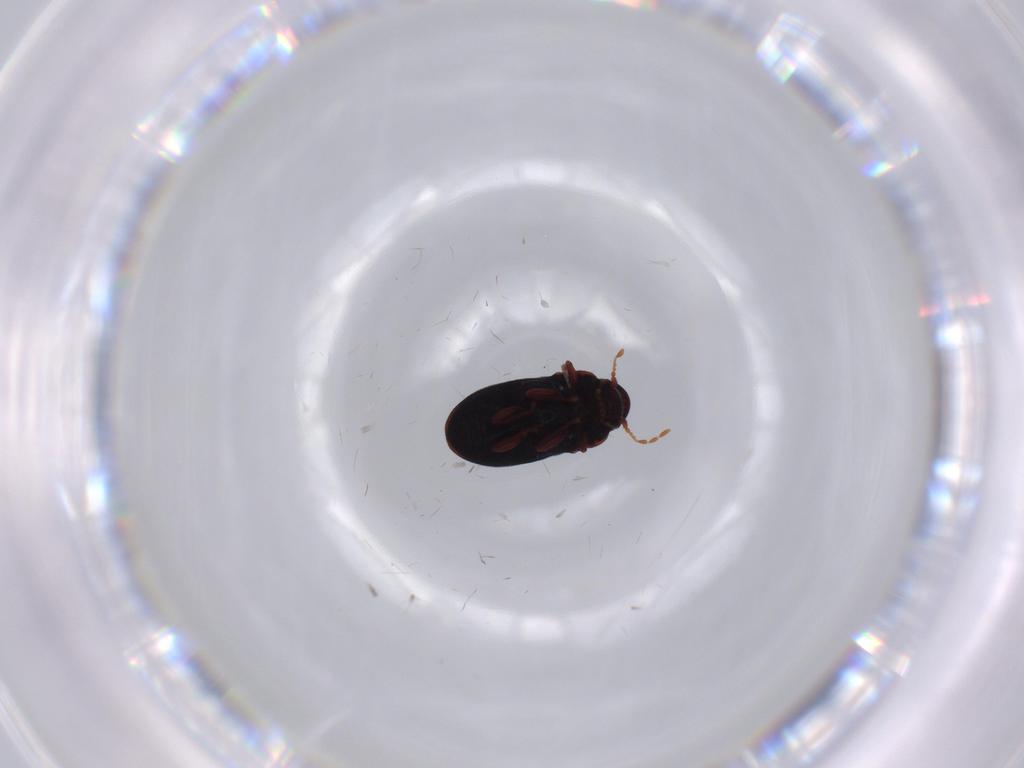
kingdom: Animalia
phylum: Arthropoda
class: Insecta
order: Coleoptera
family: Ptinidae
